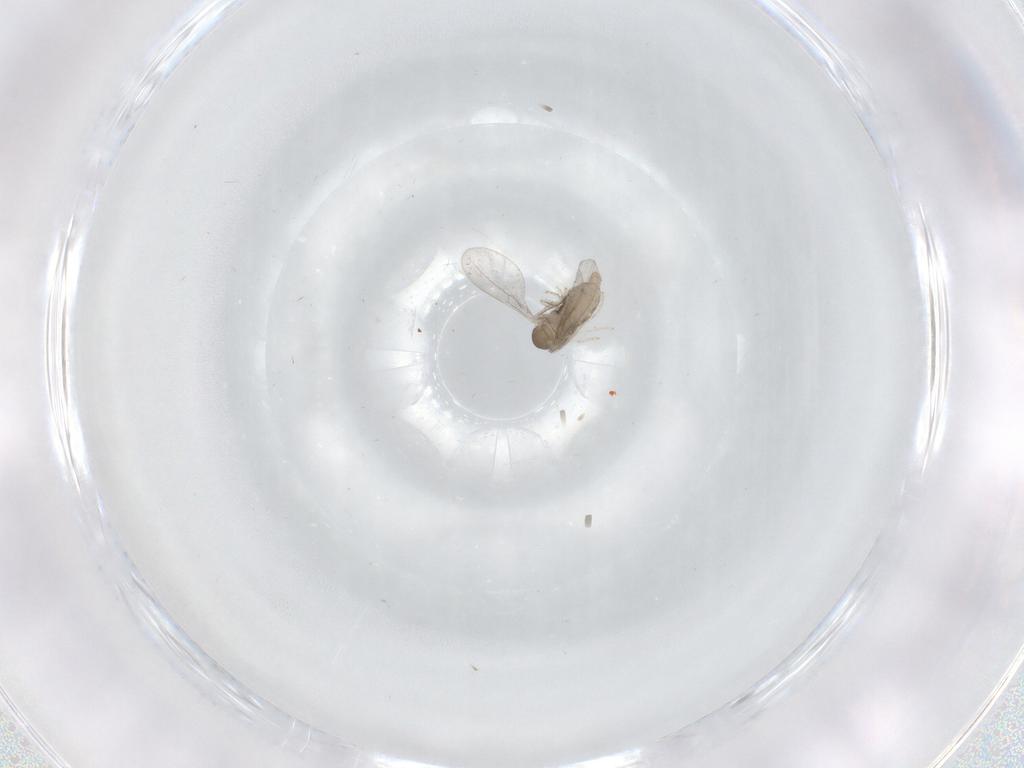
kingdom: Animalia
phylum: Arthropoda
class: Insecta
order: Diptera
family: Phoridae
